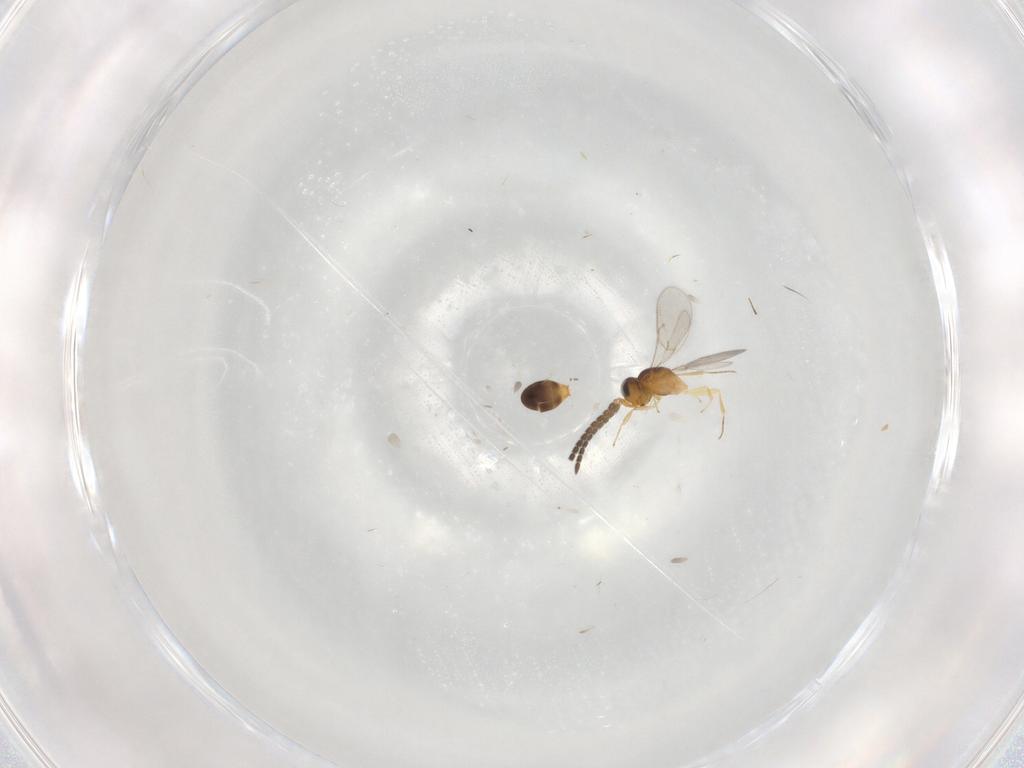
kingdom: Animalia
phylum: Arthropoda
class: Insecta
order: Hymenoptera
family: Scelionidae
